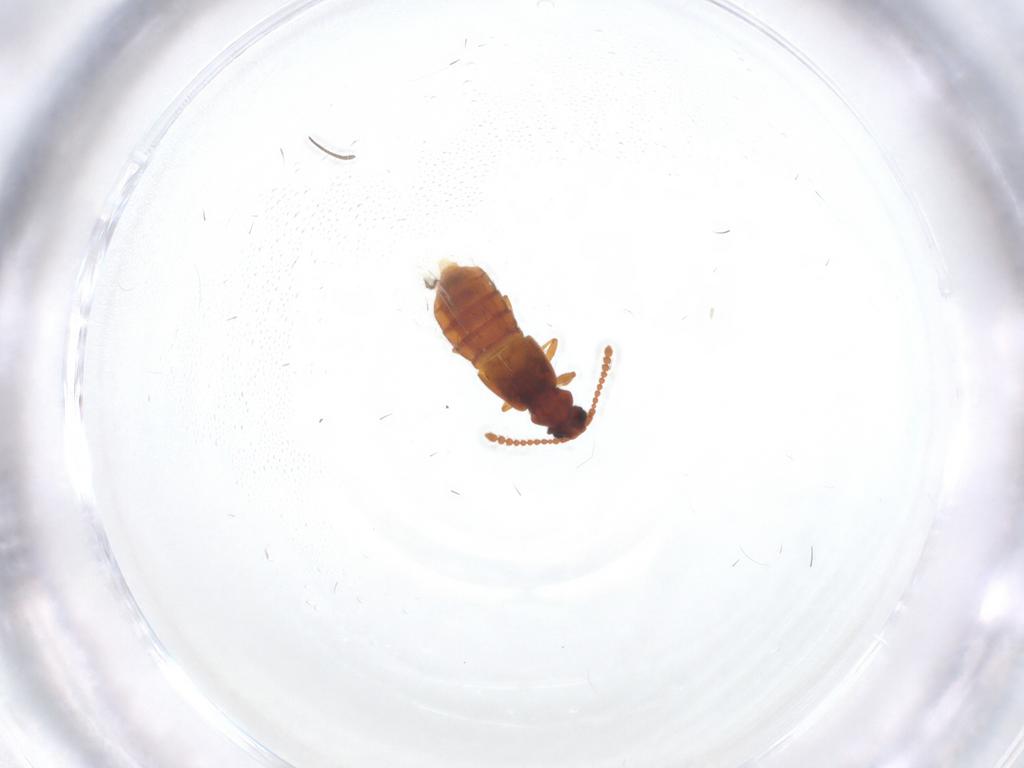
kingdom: Animalia
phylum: Arthropoda
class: Insecta
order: Coleoptera
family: Staphylinidae
